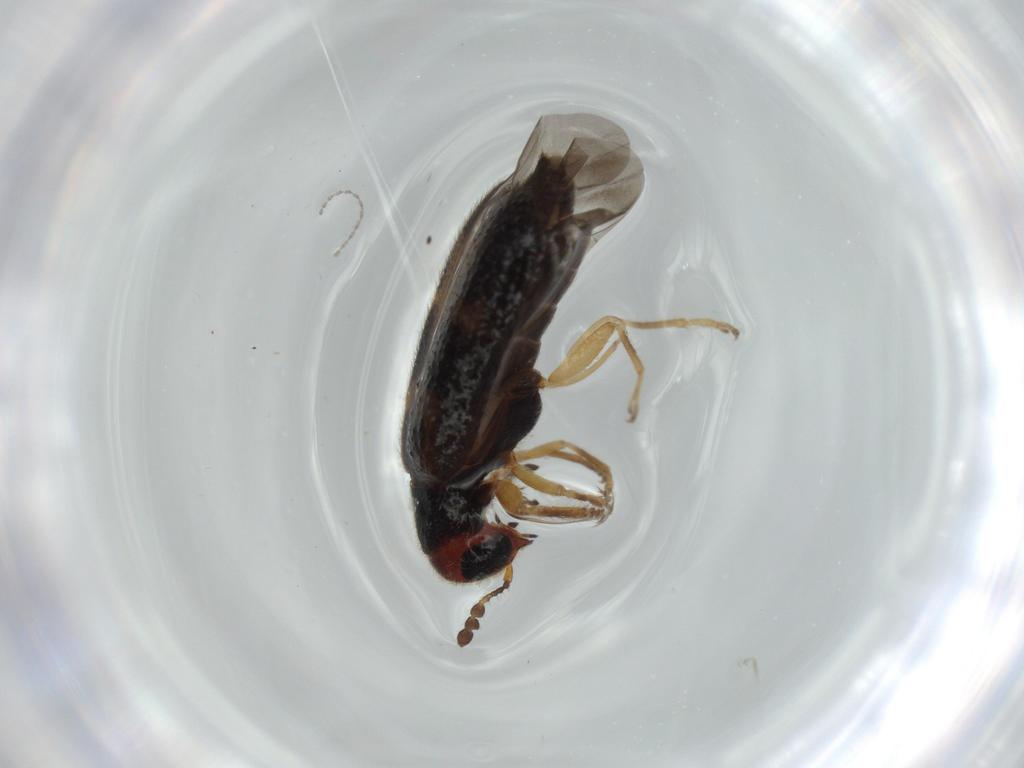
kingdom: Animalia
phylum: Arthropoda
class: Insecta
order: Coleoptera
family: Cleridae
